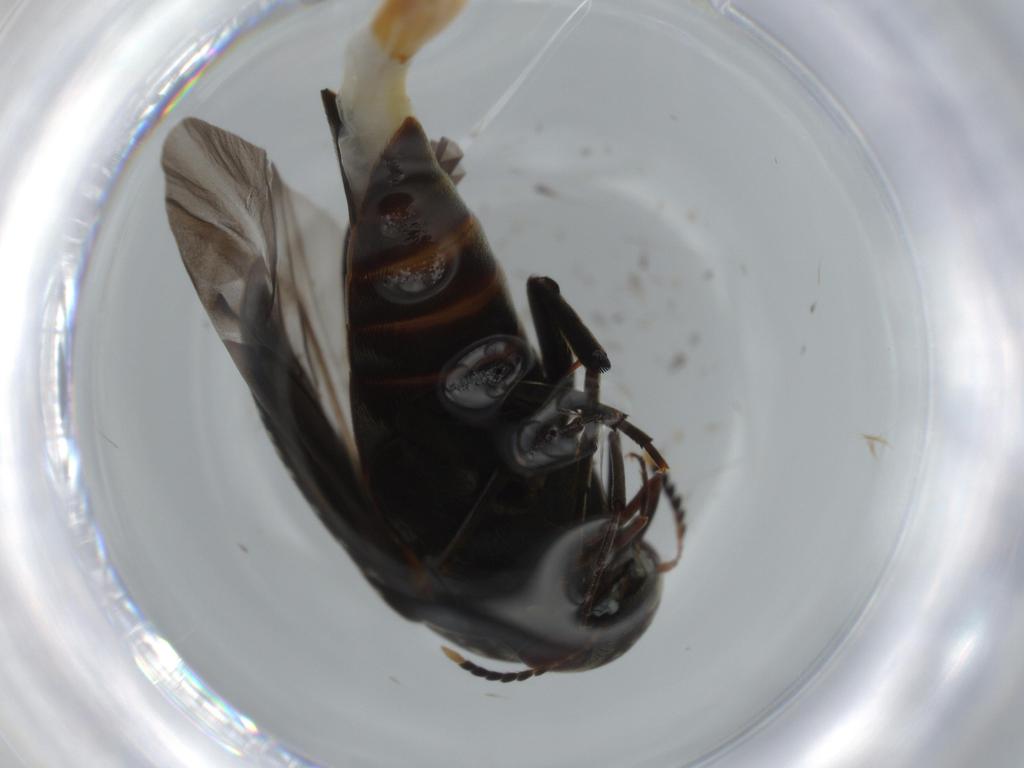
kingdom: Animalia
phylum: Arthropoda
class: Insecta
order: Coleoptera
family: Mordellidae
